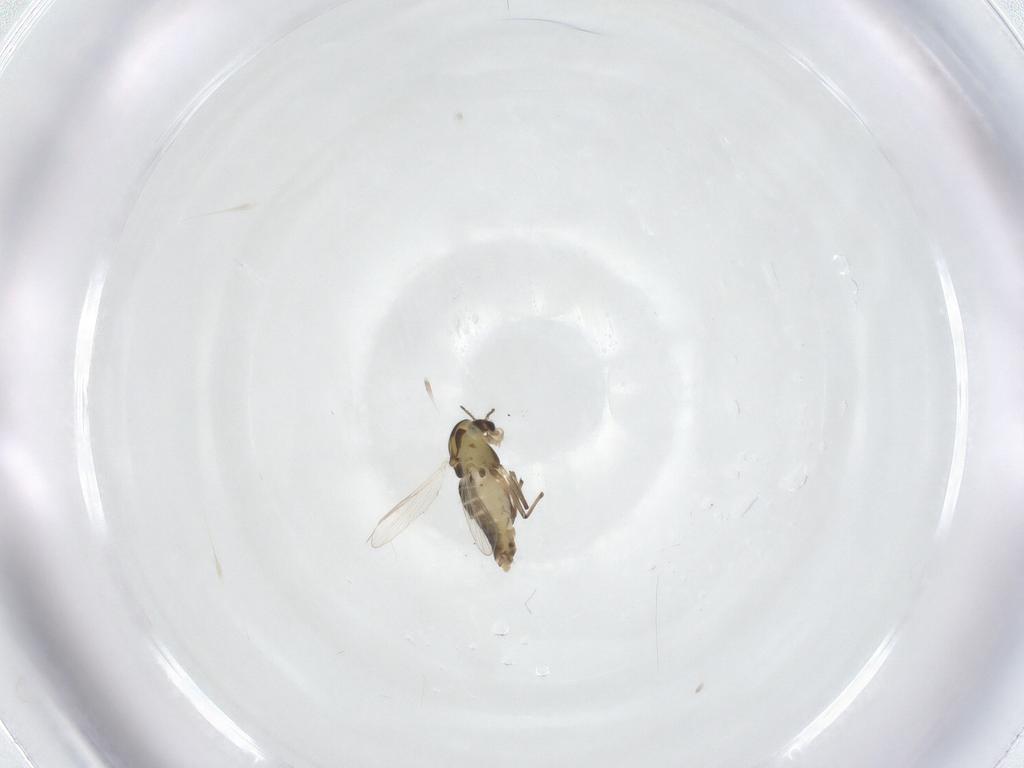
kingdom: Animalia
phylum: Arthropoda
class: Insecta
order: Diptera
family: Chironomidae
